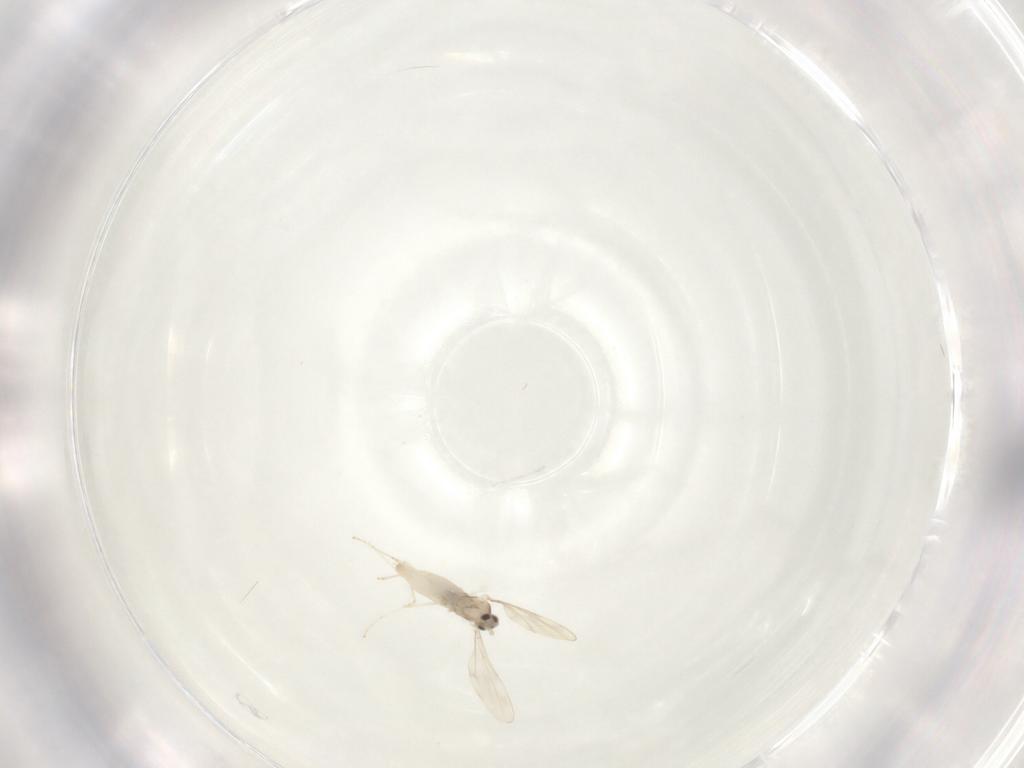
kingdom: Animalia
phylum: Arthropoda
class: Insecta
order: Diptera
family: Cecidomyiidae
